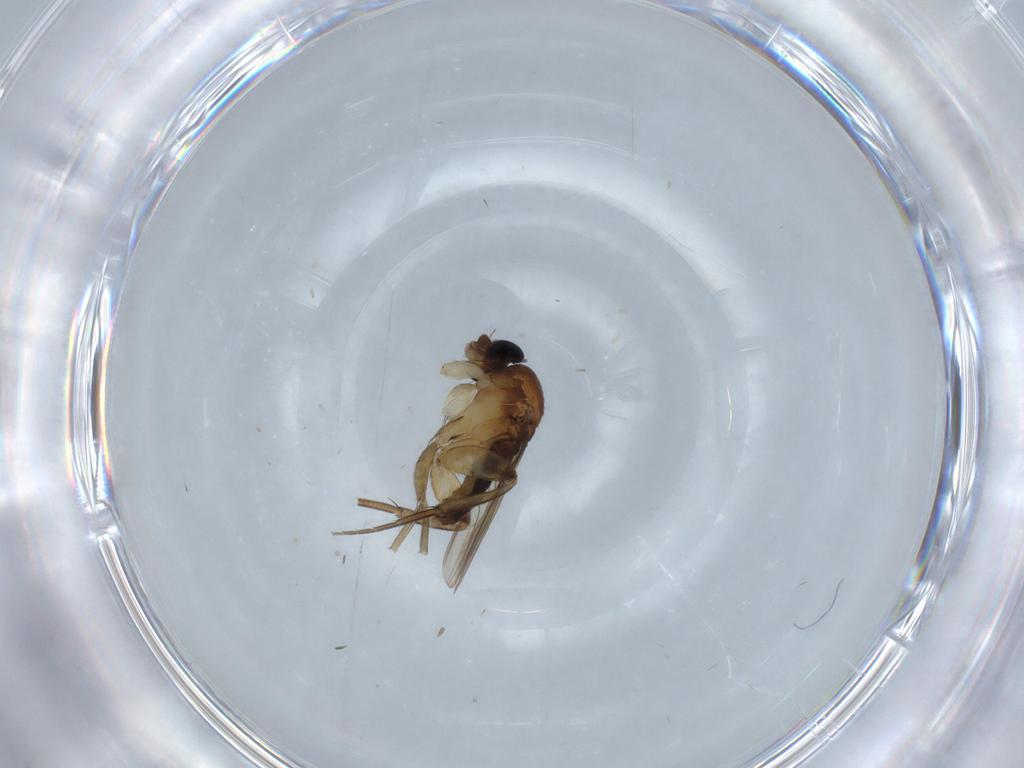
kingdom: Animalia
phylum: Arthropoda
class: Insecta
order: Diptera
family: Phoridae
